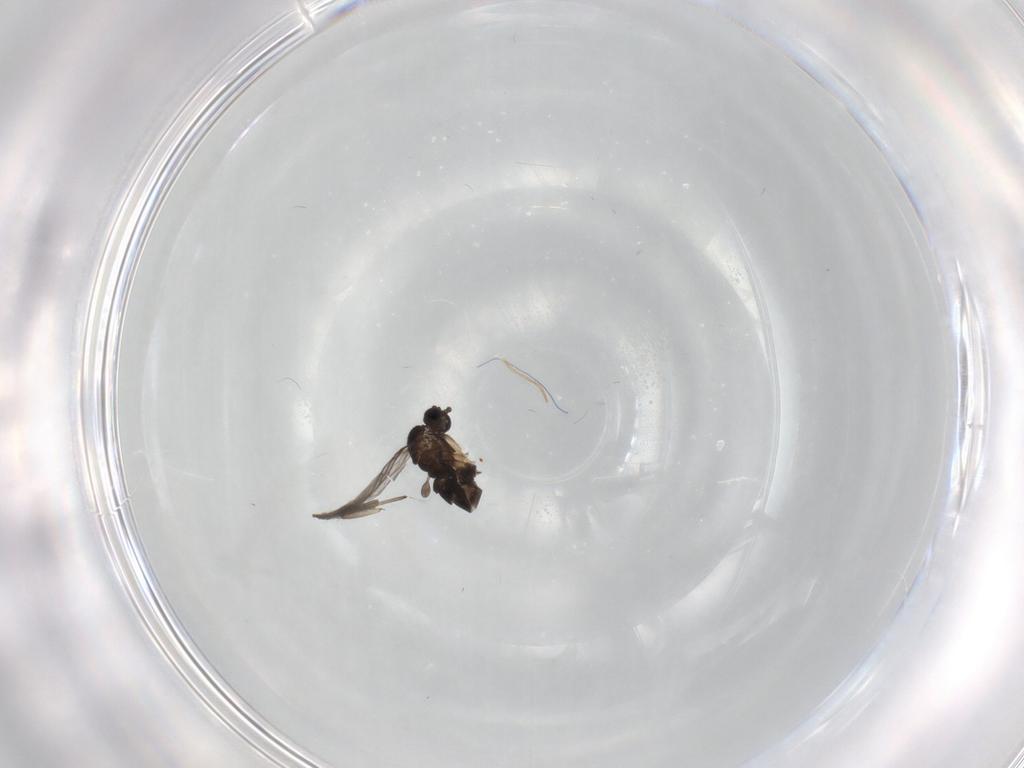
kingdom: Animalia
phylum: Arthropoda
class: Insecta
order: Diptera
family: Sciaridae
